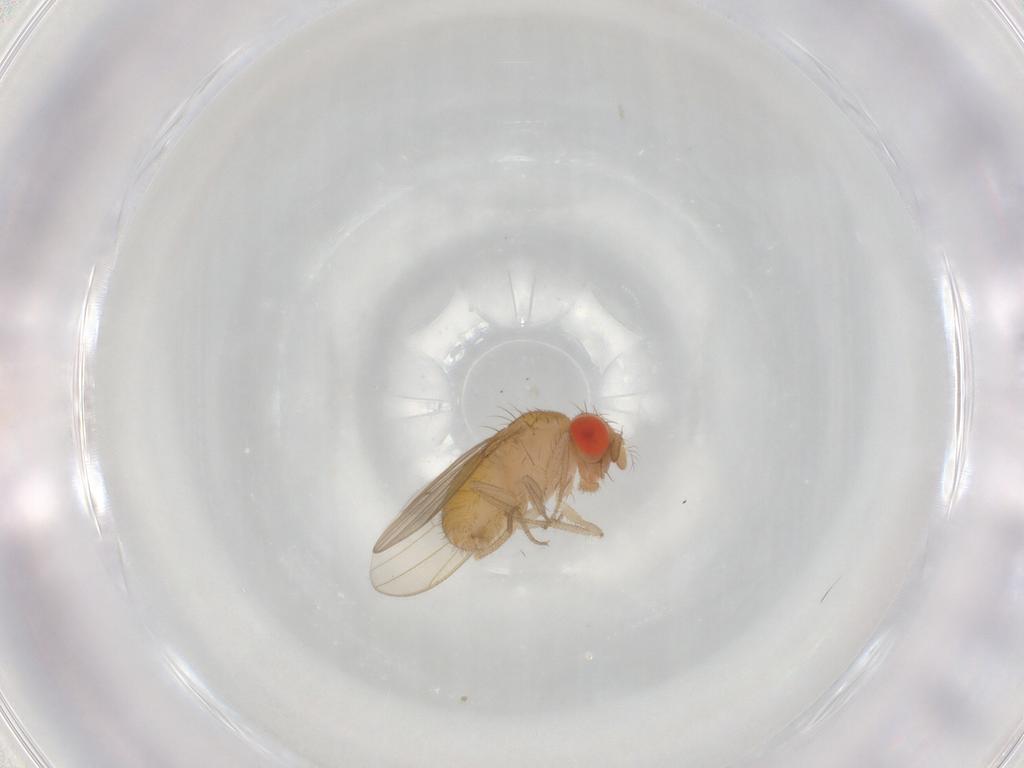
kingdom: Animalia
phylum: Arthropoda
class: Insecta
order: Diptera
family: Drosophilidae
